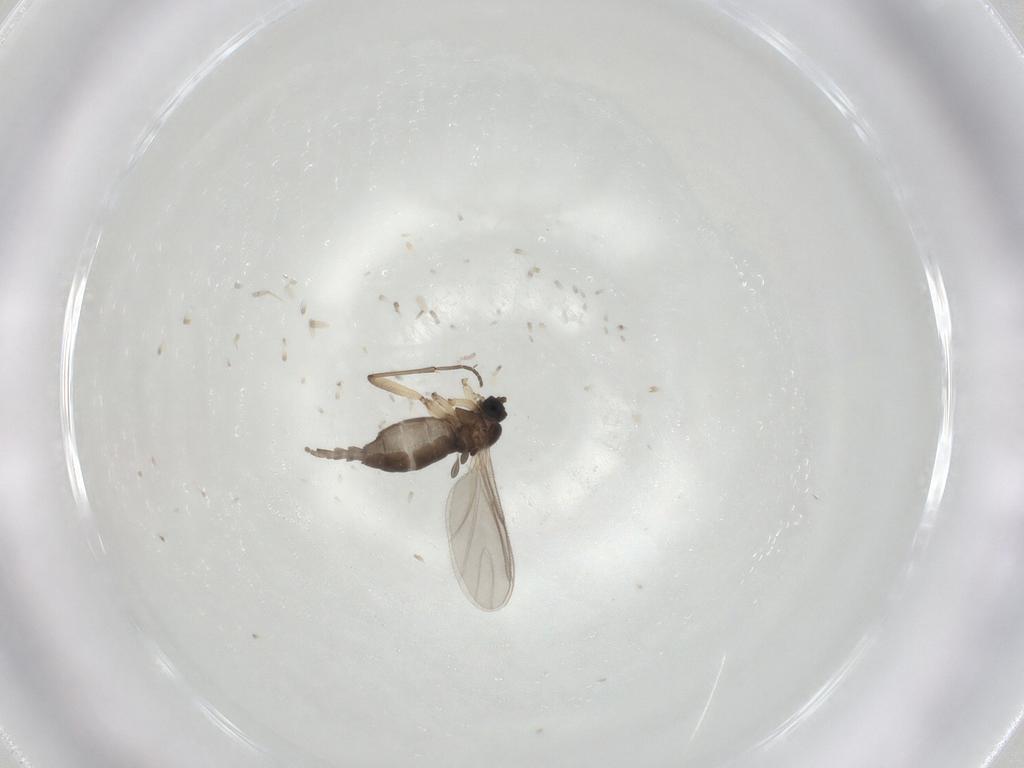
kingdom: Animalia
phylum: Arthropoda
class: Insecta
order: Diptera
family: Sciaridae
